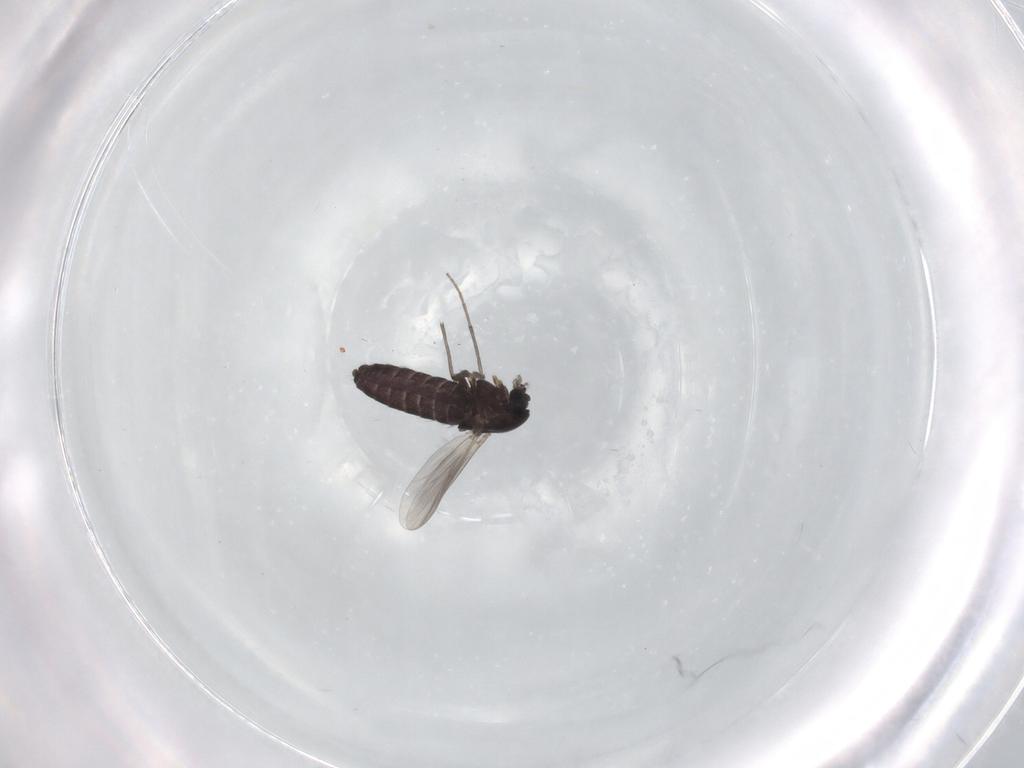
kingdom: Animalia
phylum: Arthropoda
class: Insecta
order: Diptera
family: Chironomidae
